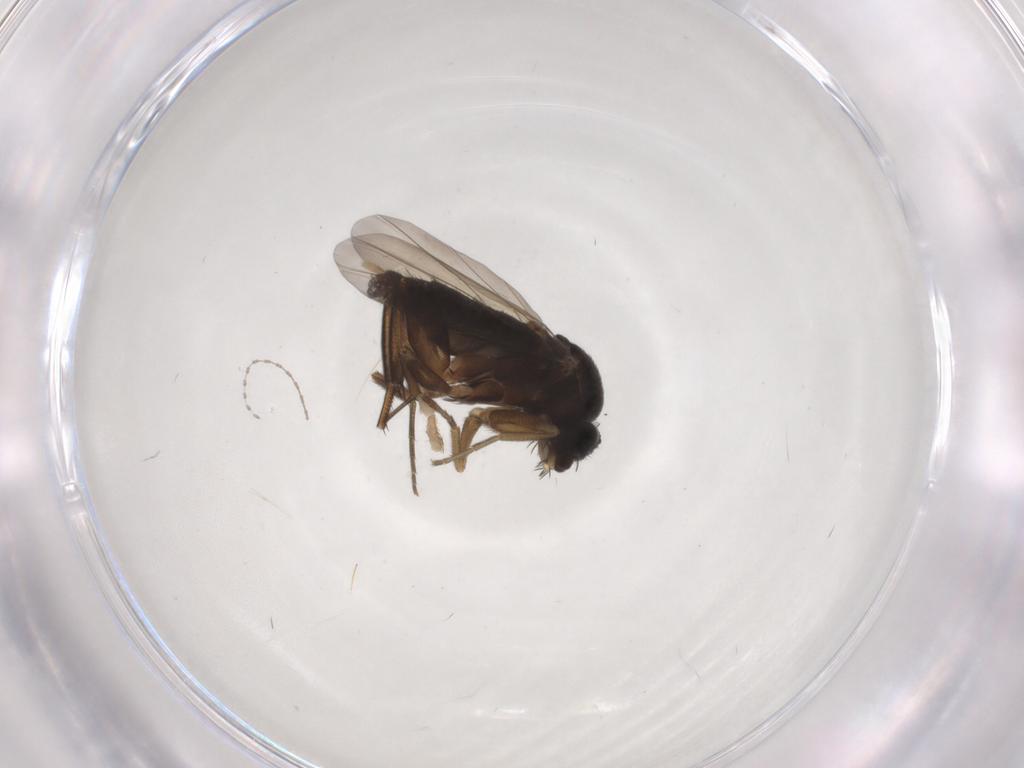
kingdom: Animalia
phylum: Arthropoda
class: Insecta
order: Diptera
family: Phoridae
